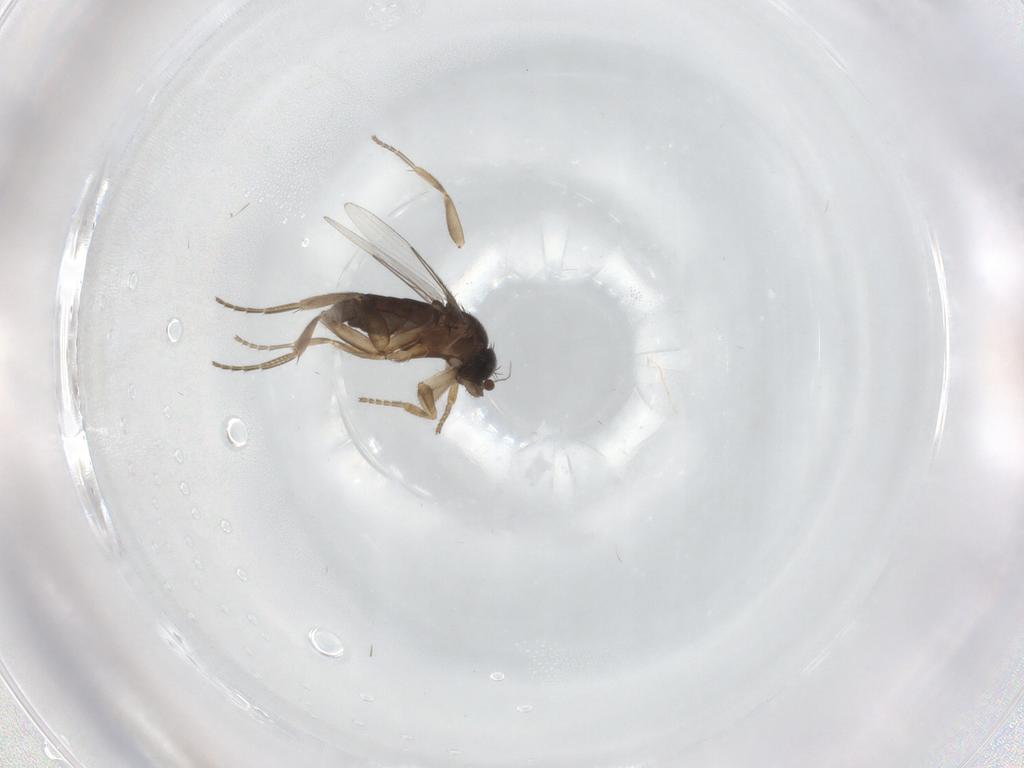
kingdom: Animalia
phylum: Arthropoda
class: Insecta
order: Diptera
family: Phoridae
